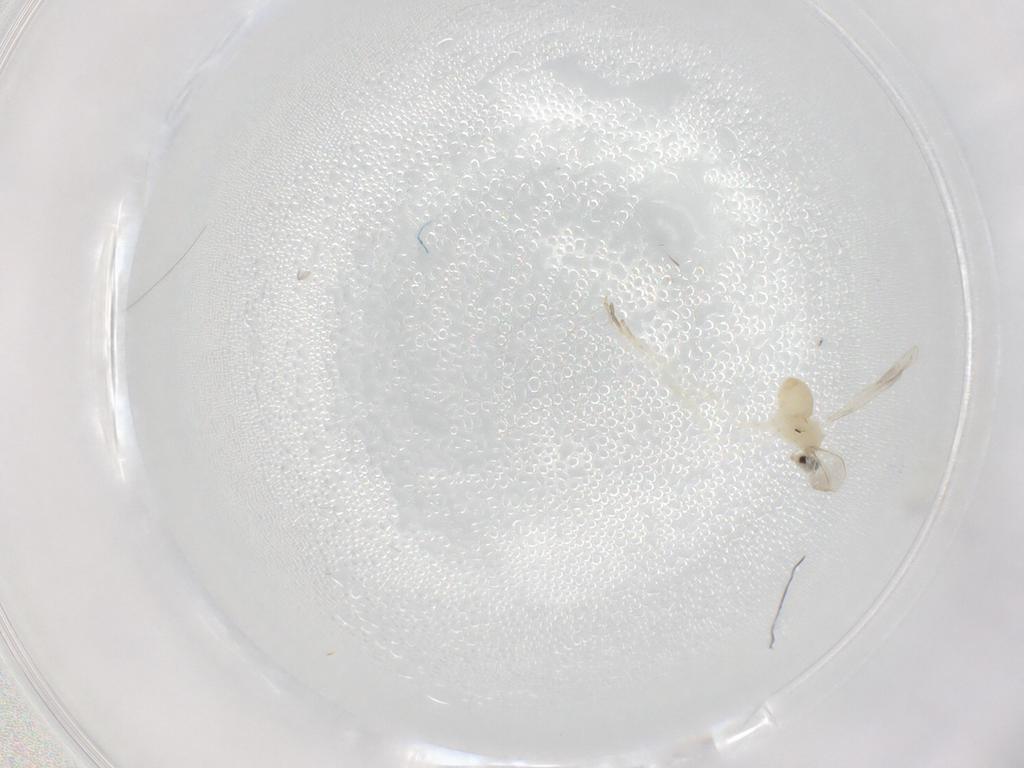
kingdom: Animalia
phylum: Arthropoda
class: Insecta
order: Diptera
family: Cecidomyiidae
